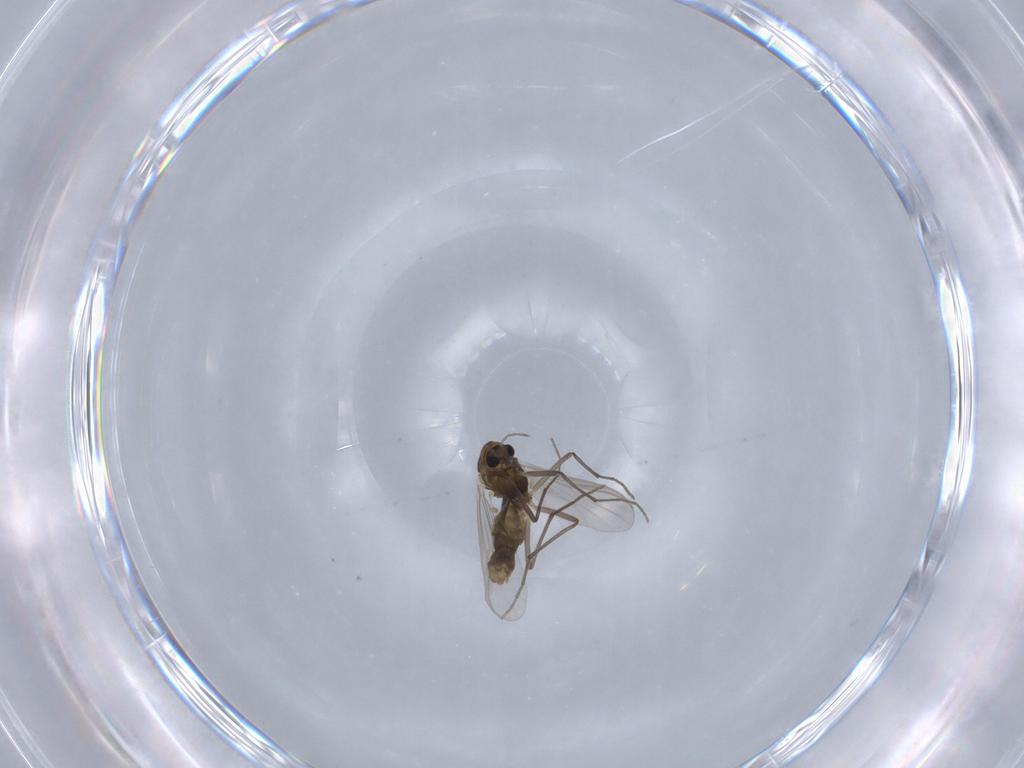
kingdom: Animalia
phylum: Arthropoda
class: Insecta
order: Diptera
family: Chironomidae
